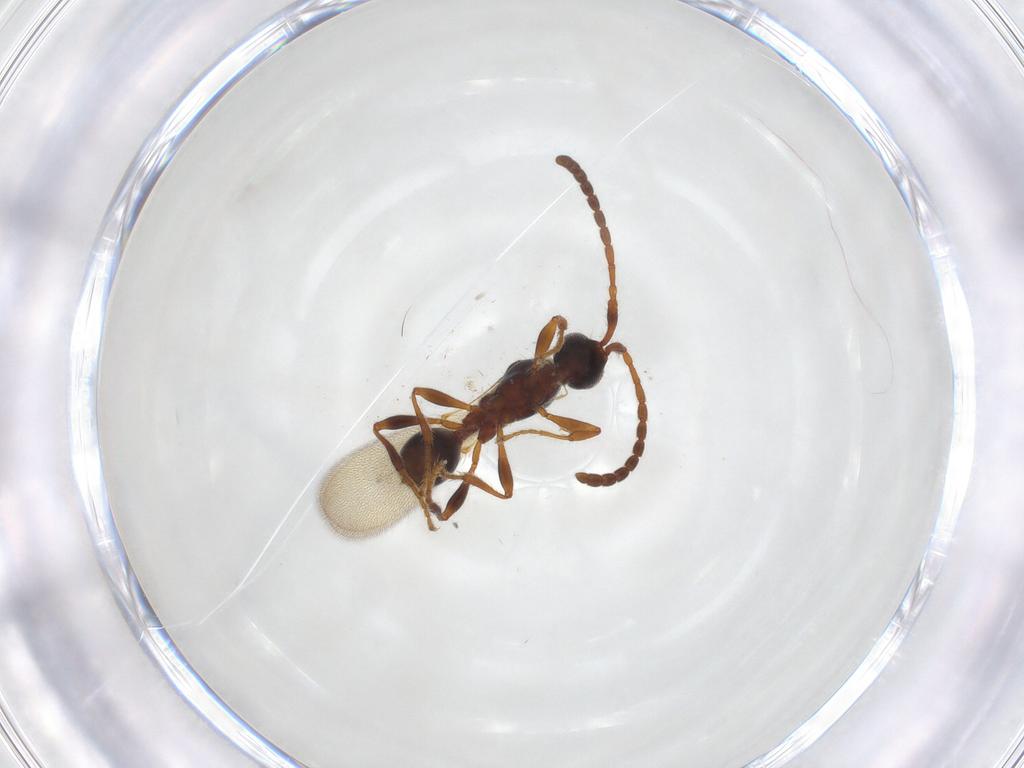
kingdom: Animalia
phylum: Arthropoda
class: Insecta
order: Hymenoptera
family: Diapriidae
